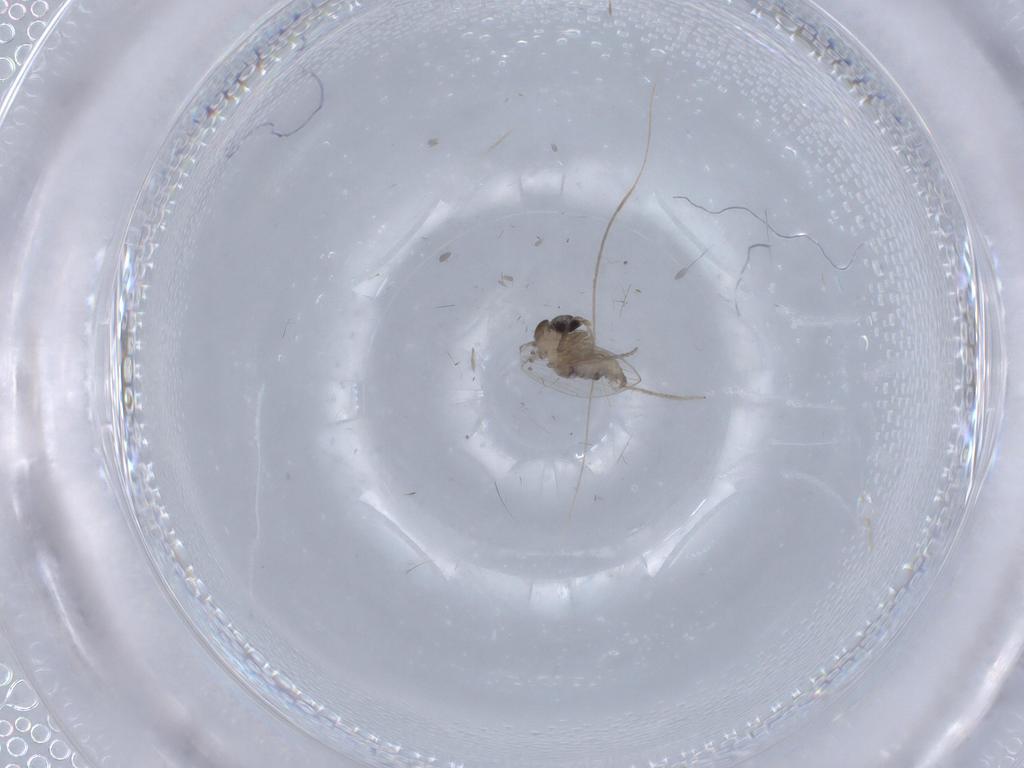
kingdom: Animalia
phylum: Arthropoda
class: Insecta
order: Diptera
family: Psychodidae
